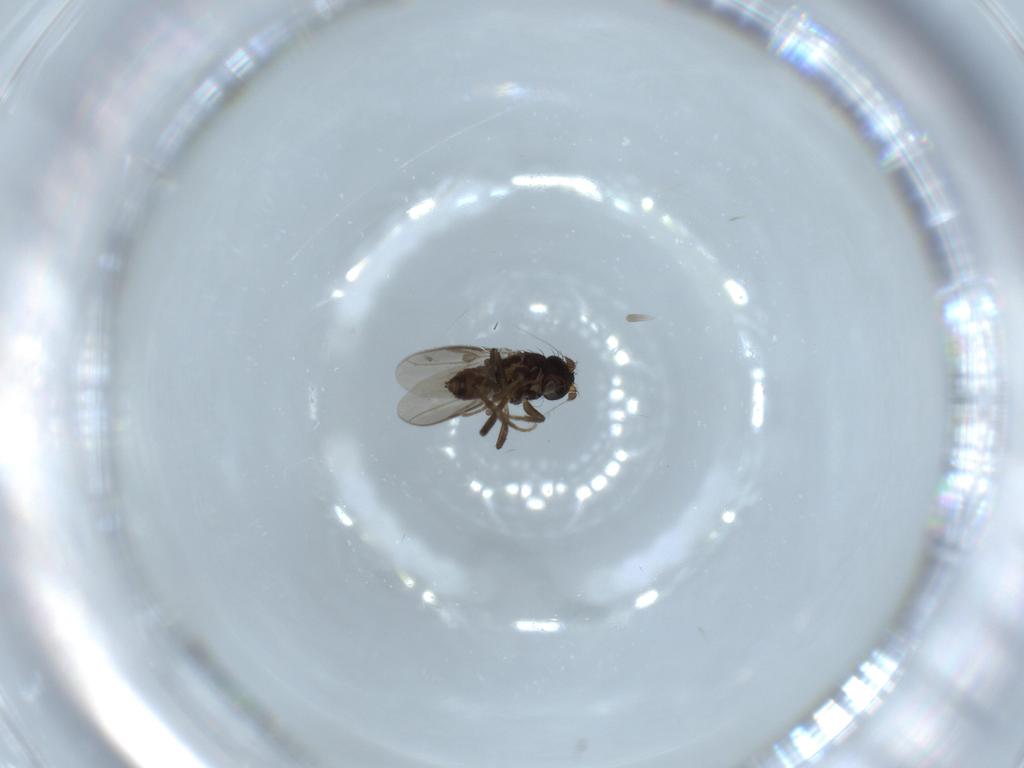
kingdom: Animalia
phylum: Arthropoda
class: Insecta
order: Diptera
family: Sphaeroceridae
